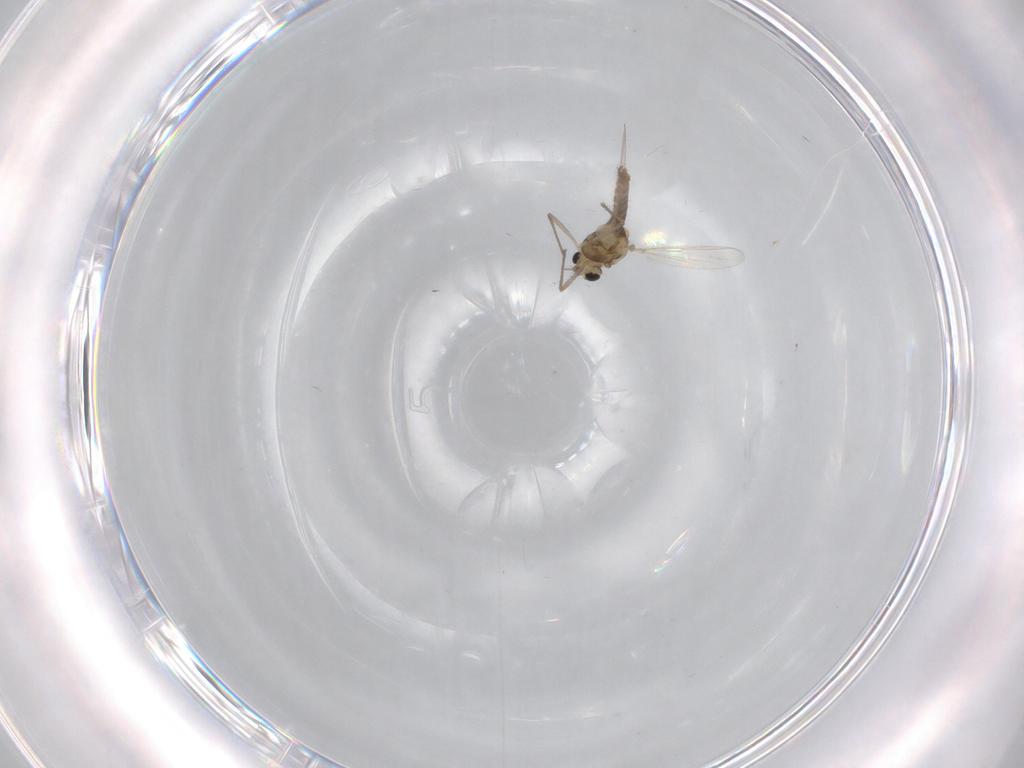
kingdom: Animalia
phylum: Arthropoda
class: Insecta
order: Diptera
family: Chironomidae
